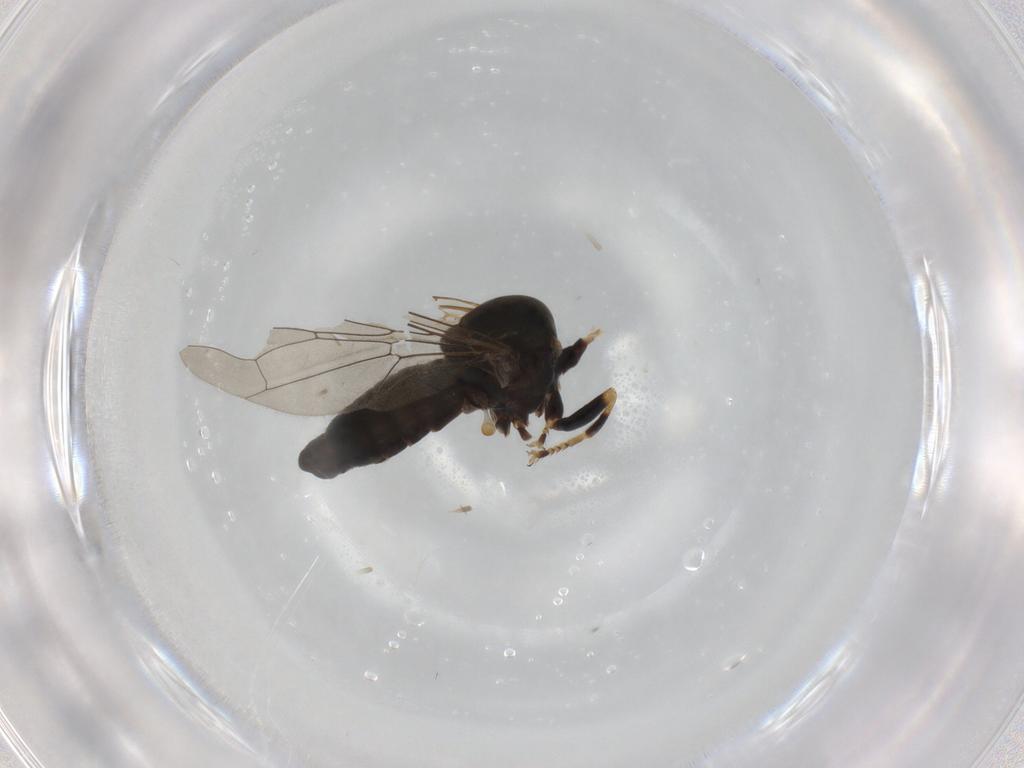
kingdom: Animalia
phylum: Arthropoda
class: Insecta
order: Diptera
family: Pipunculidae
